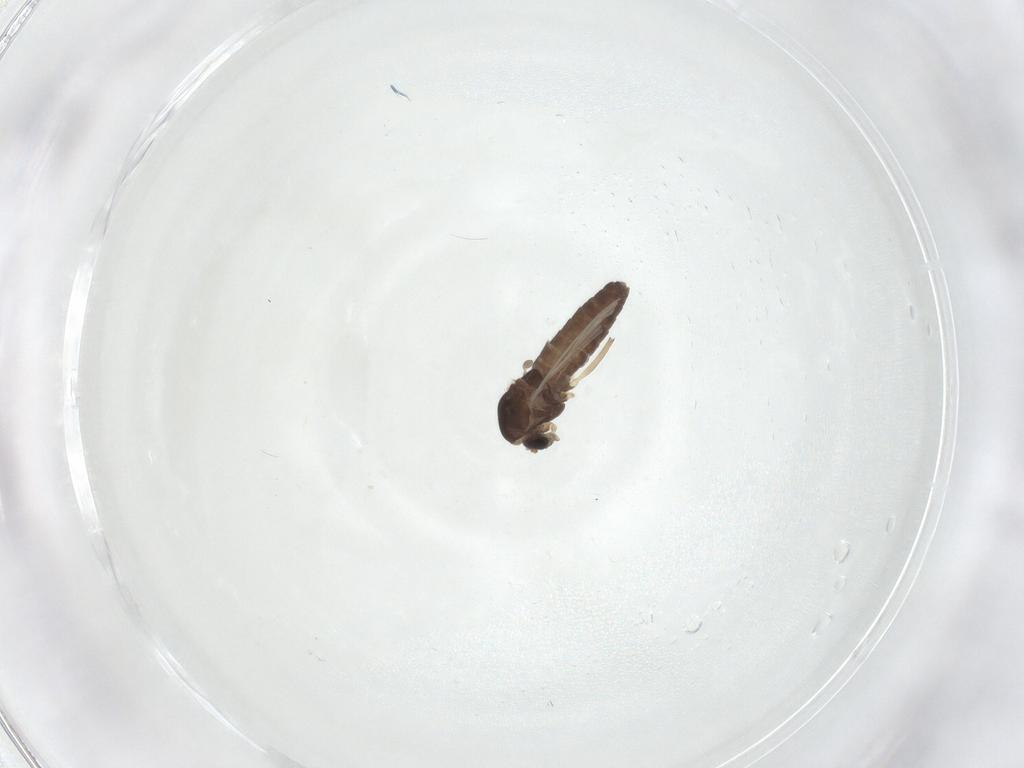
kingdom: Animalia
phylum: Arthropoda
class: Insecta
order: Diptera
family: Chironomidae
